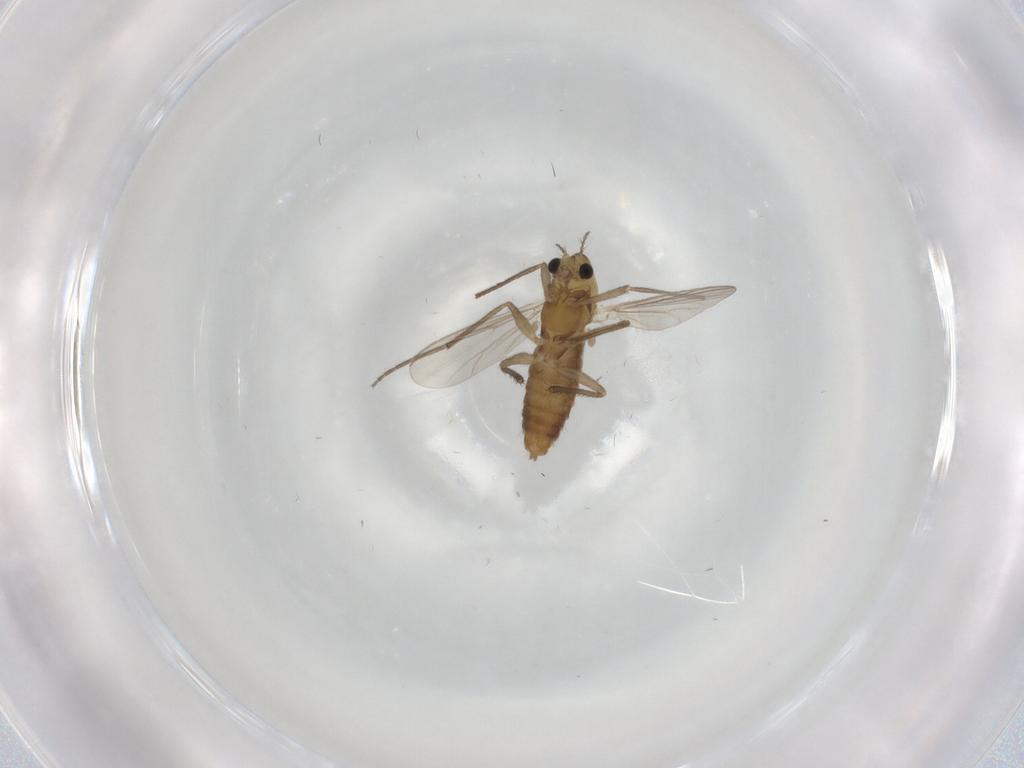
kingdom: Animalia
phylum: Arthropoda
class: Insecta
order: Diptera
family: Chironomidae
